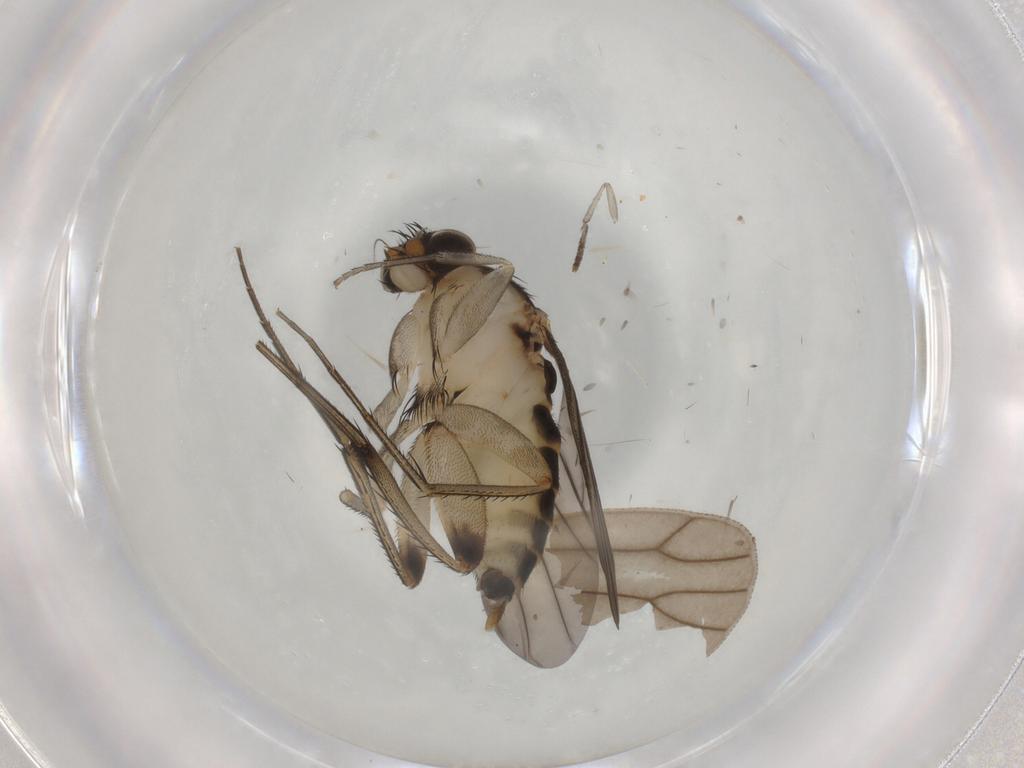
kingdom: Animalia
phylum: Arthropoda
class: Insecta
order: Diptera
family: Phoridae
